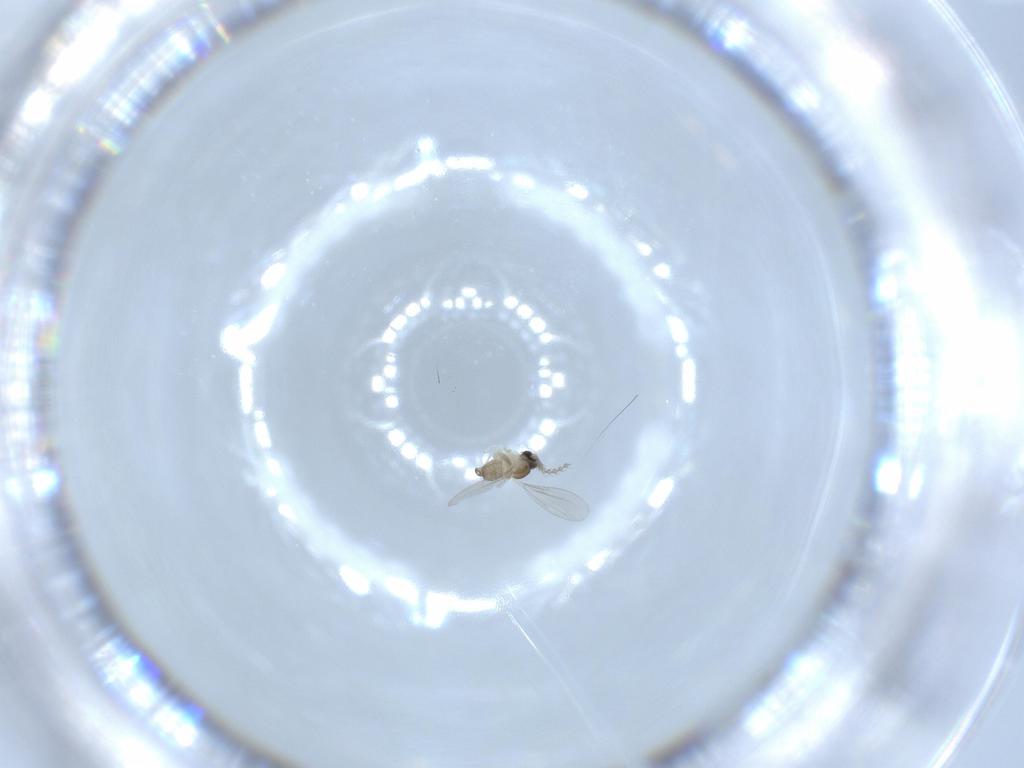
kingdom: Animalia
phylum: Arthropoda
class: Insecta
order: Diptera
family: Cecidomyiidae
